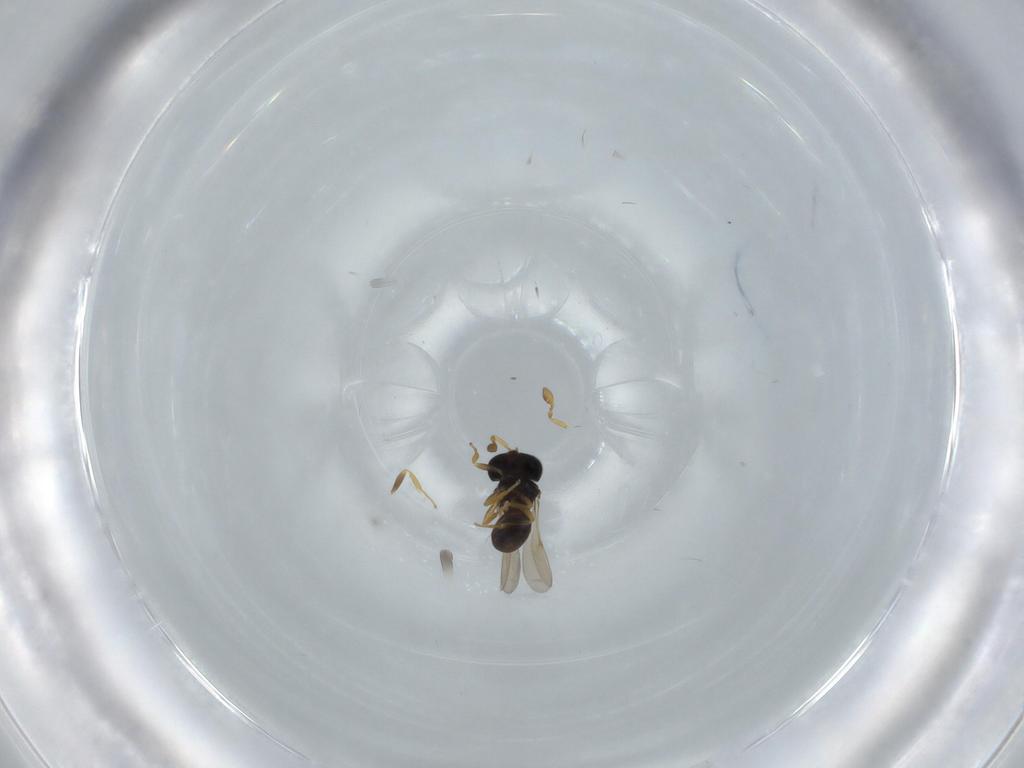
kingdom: Animalia
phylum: Arthropoda
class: Insecta
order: Hymenoptera
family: Scelionidae
